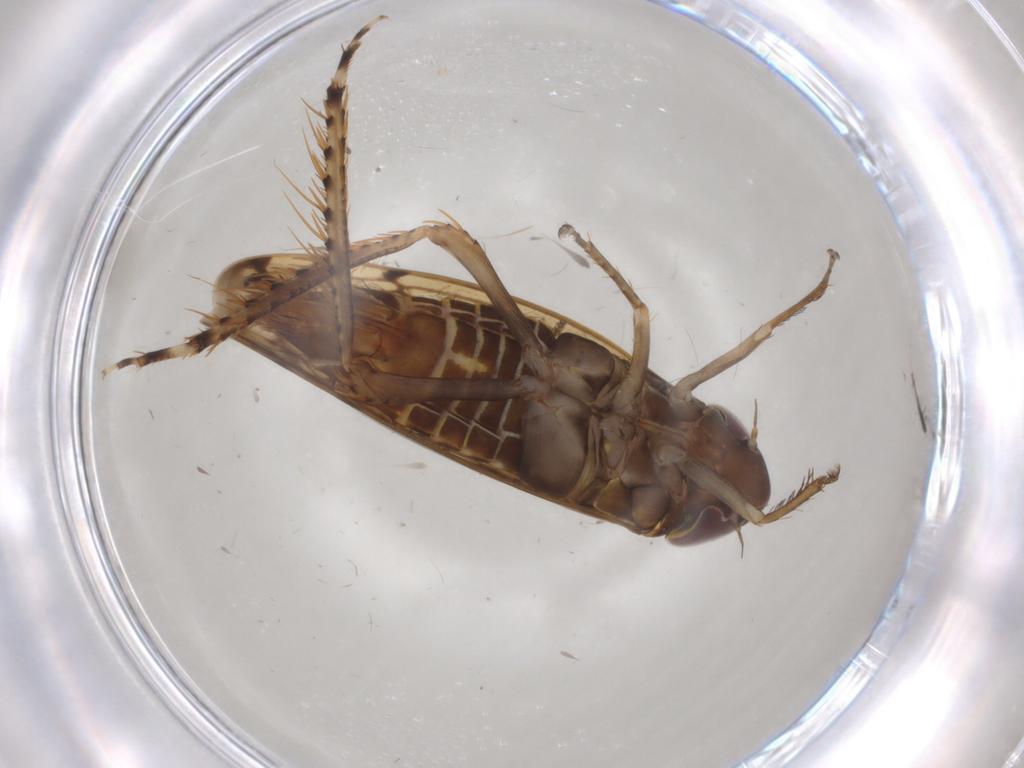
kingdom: Animalia
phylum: Arthropoda
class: Insecta
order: Hemiptera
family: Cicadellidae
